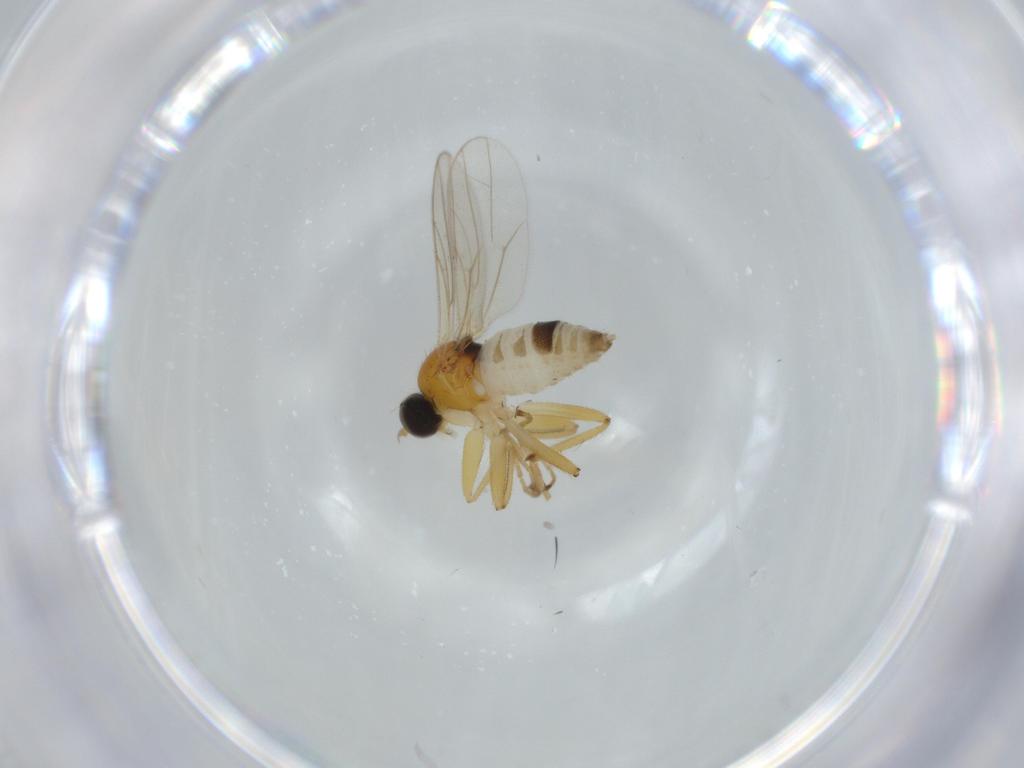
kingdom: Animalia
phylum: Arthropoda
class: Insecta
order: Diptera
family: Hybotidae
